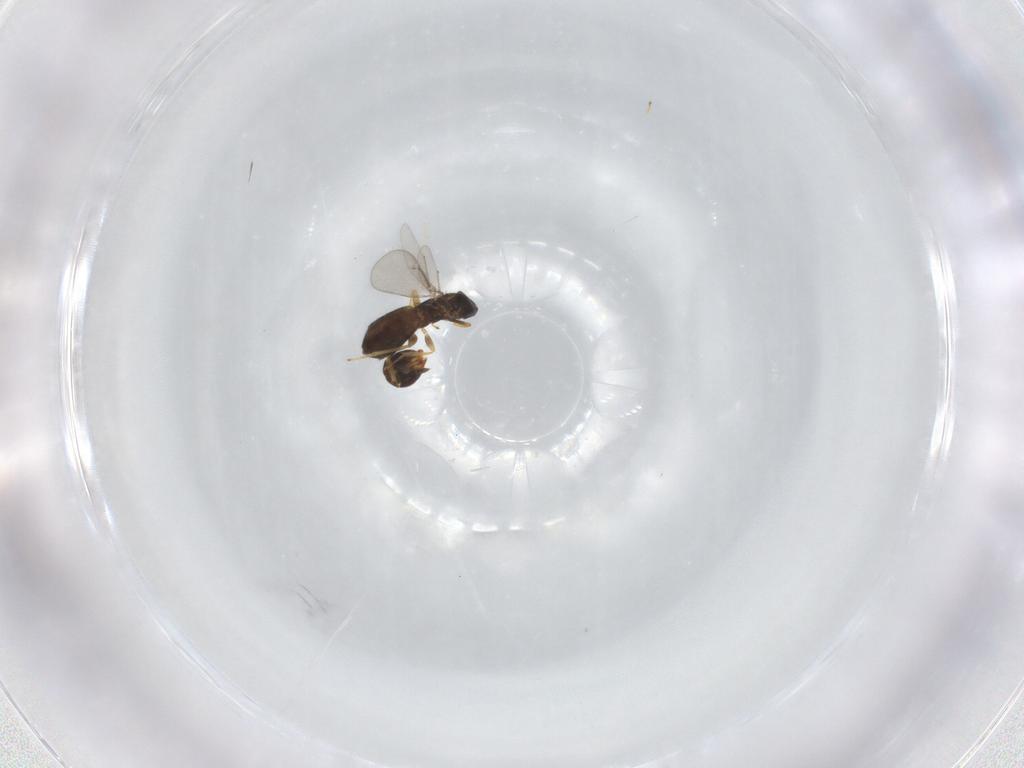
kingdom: Animalia
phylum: Arthropoda
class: Insecta
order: Hymenoptera
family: Eulophidae
